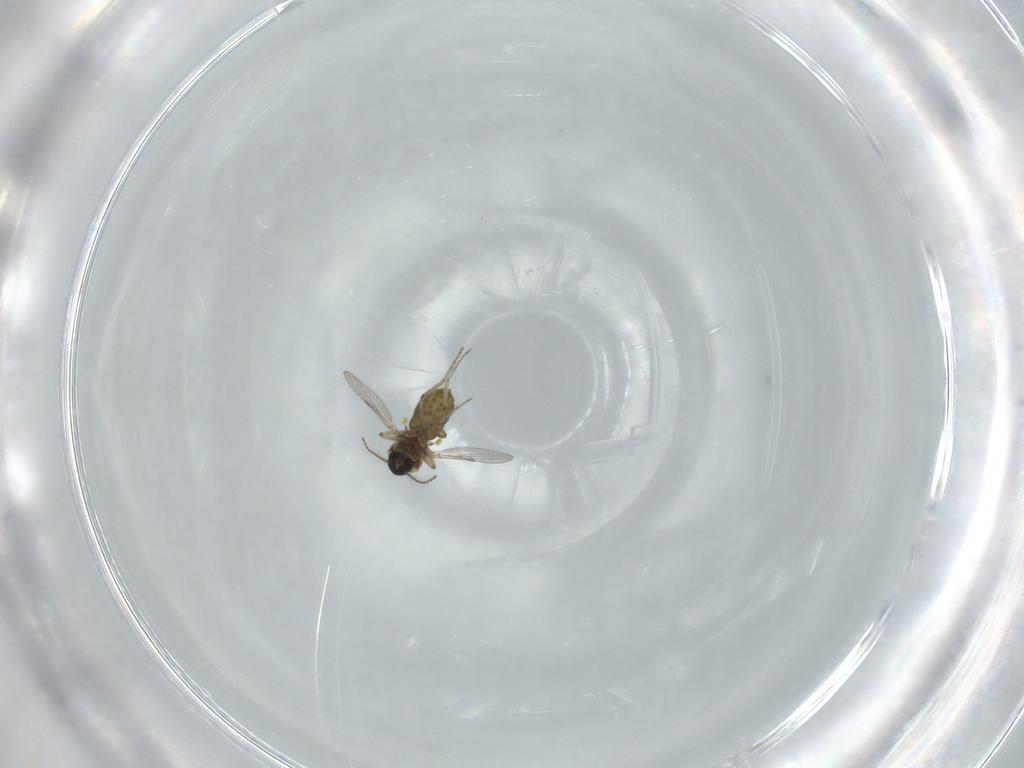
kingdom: Animalia
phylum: Arthropoda
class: Insecta
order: Diptera
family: Ceratopogonidae
